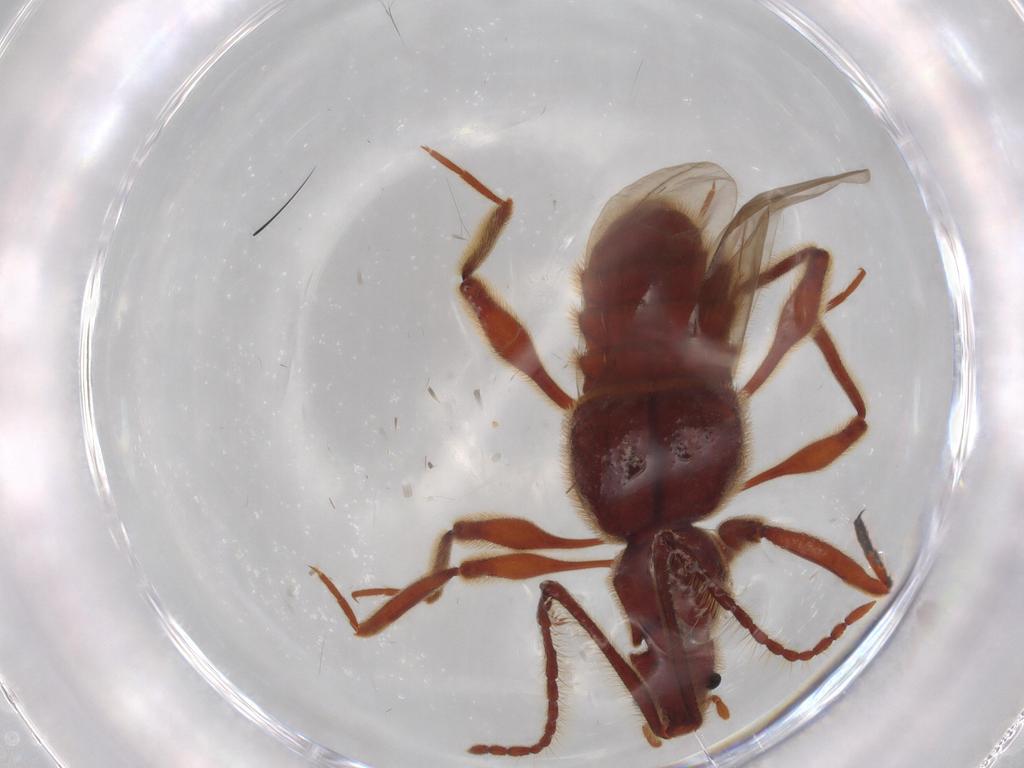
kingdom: Animalia
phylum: Arthropoda
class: Insecta
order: Coleoptera
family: Staphylinidae
